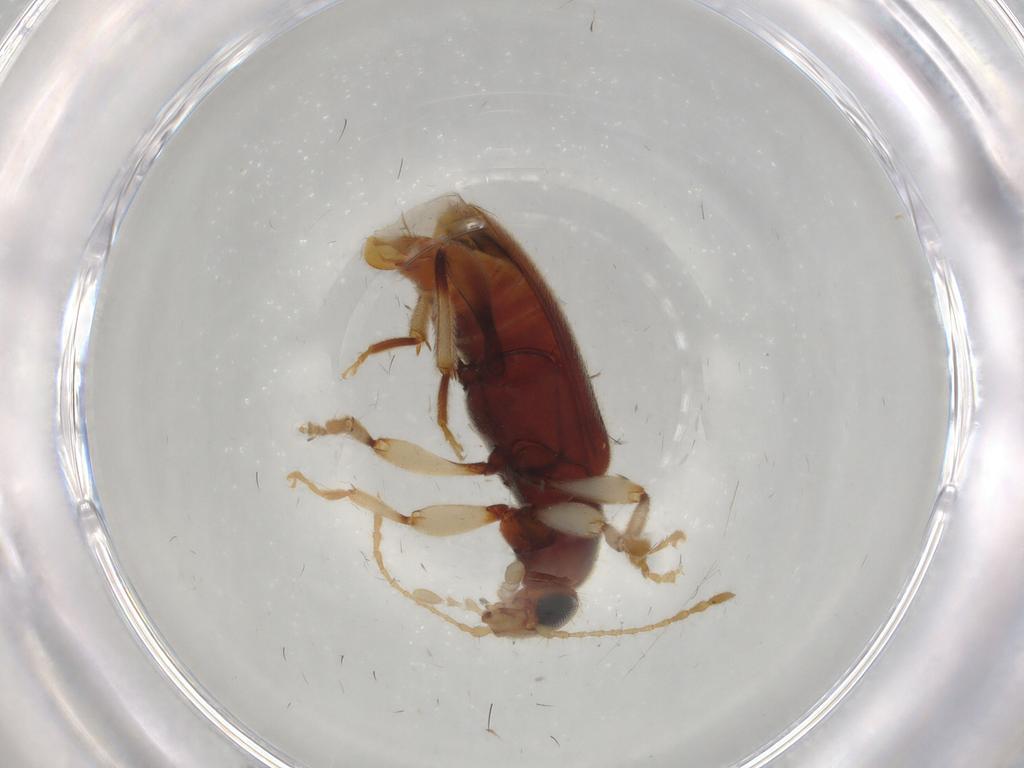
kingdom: Animalia
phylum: Arthropoda
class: Insecta
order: Coleoptera
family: Anthicidae
